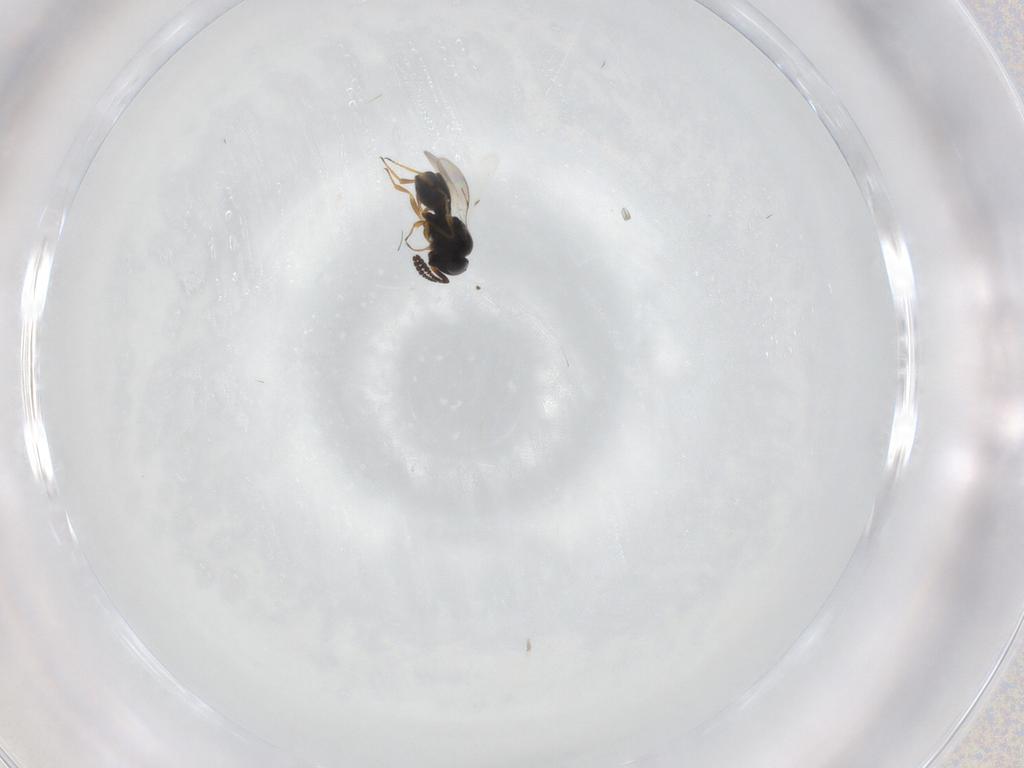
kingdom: Animalia
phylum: Arthropoda
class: Insecta
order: Hymenoptera
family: Scelionidae
